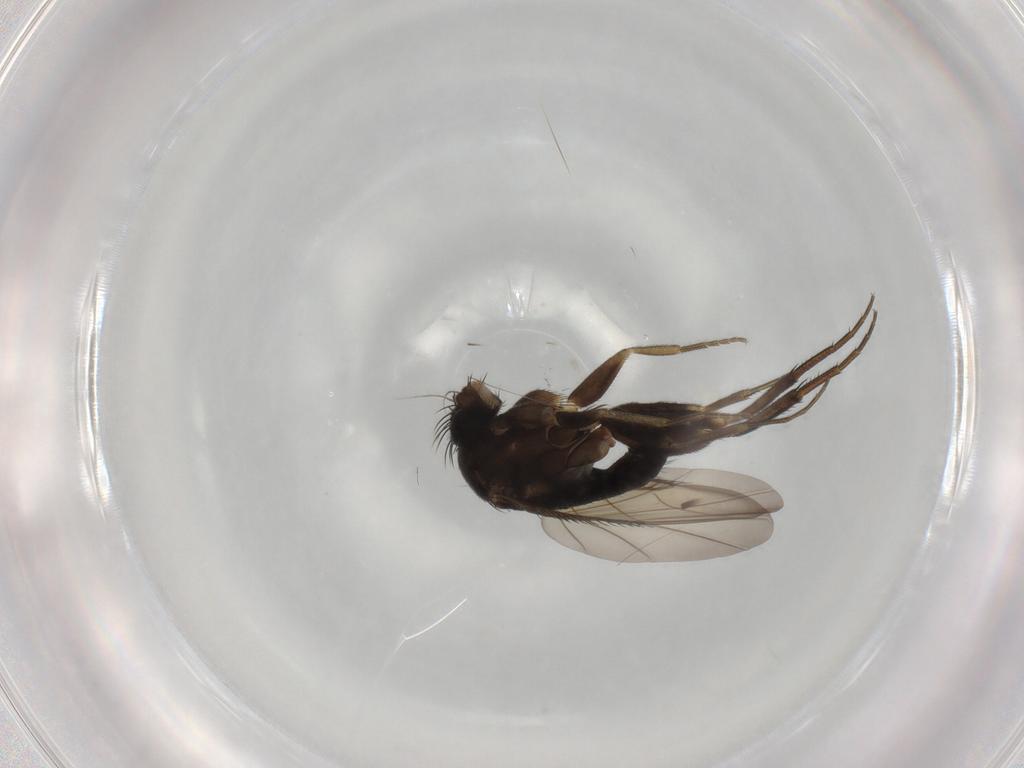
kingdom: Animalia
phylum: Arthropoda
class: Insecta
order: Diptera
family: Phoridae
